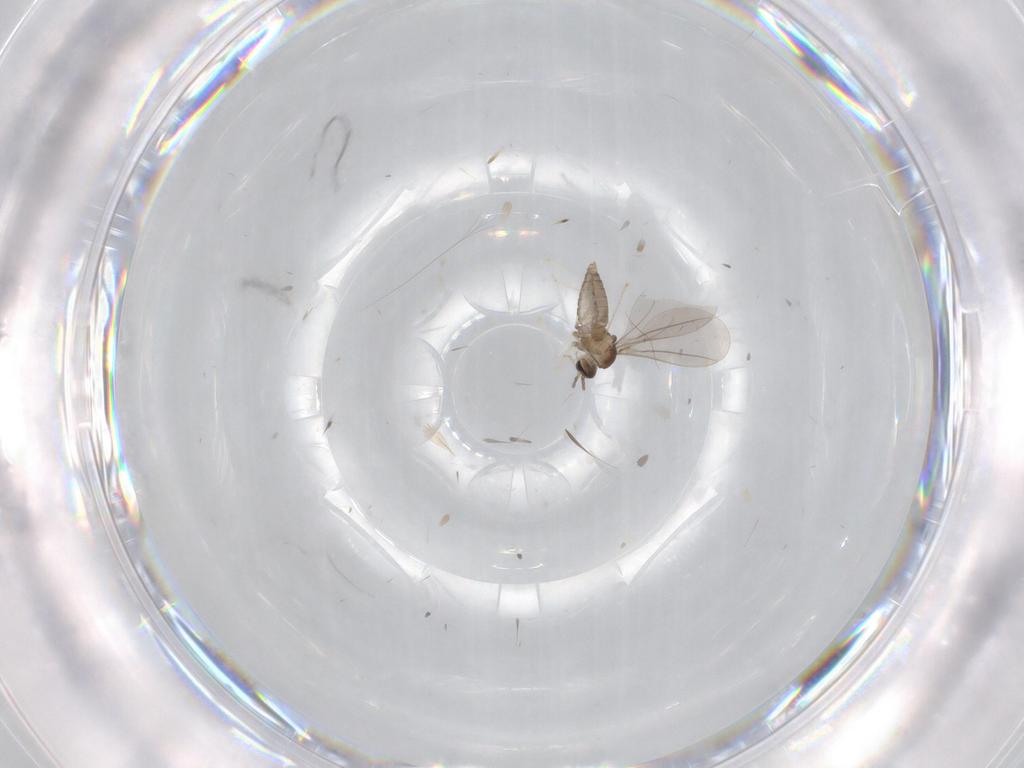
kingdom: Animalia
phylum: Arthropoda
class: Insecta
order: Diptera
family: Cecidomyiidae
